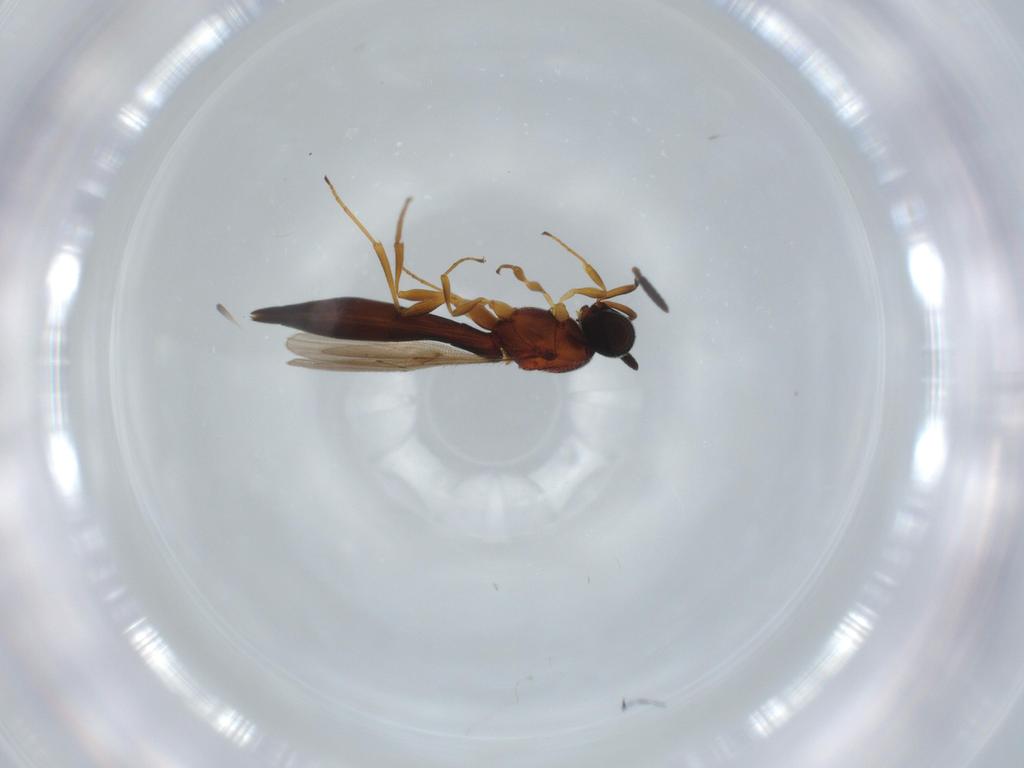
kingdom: Animalia
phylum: Arthropoda
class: Insecta
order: Hymenoptera
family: Scelionidae
